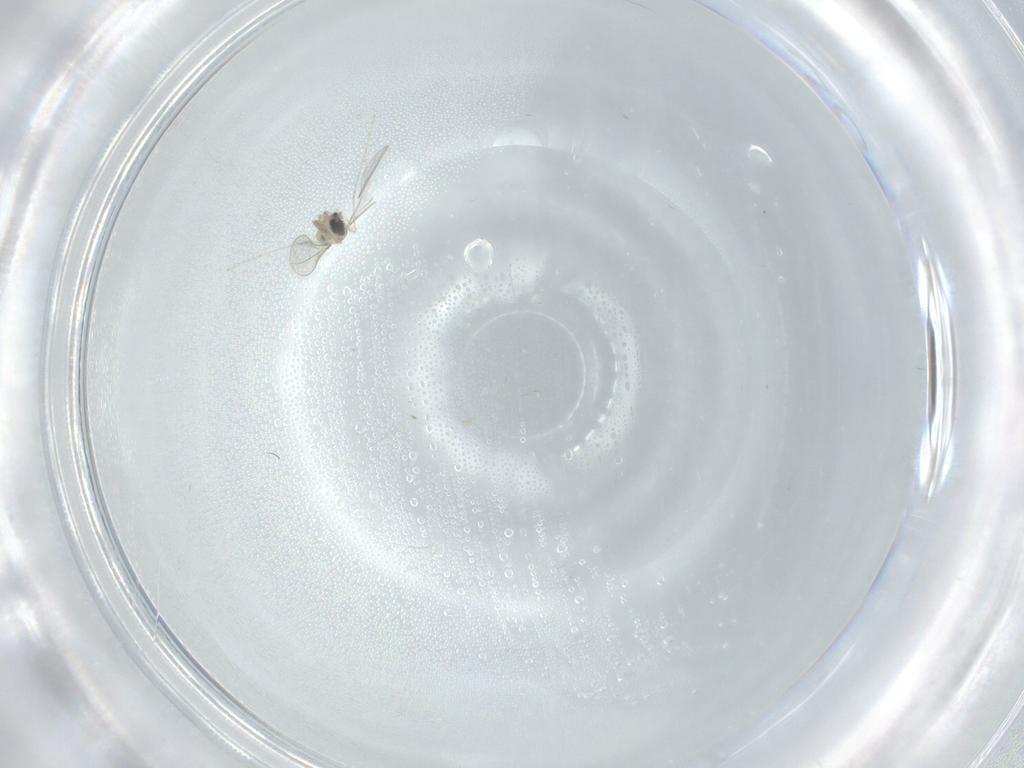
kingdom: Animalia
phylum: Arthropoda
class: Insecta
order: Diptera
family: Cecidomyiidae
